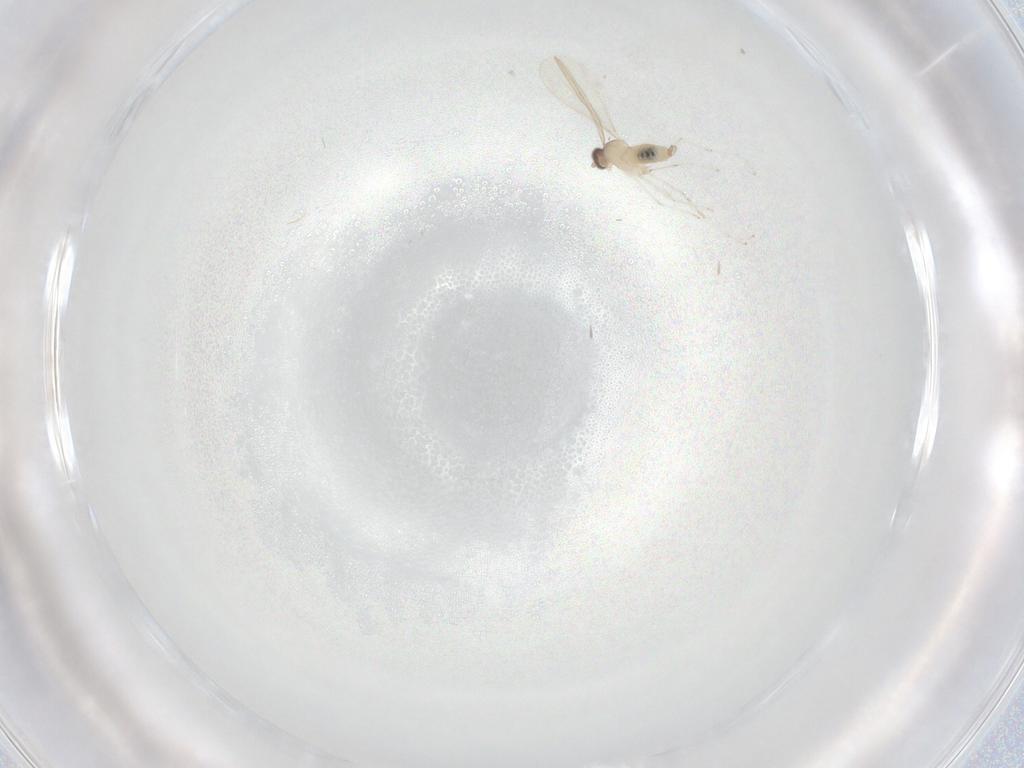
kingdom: Animalia
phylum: Arthropoda
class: Insecta
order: Diptera
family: Cecidomyiidae
